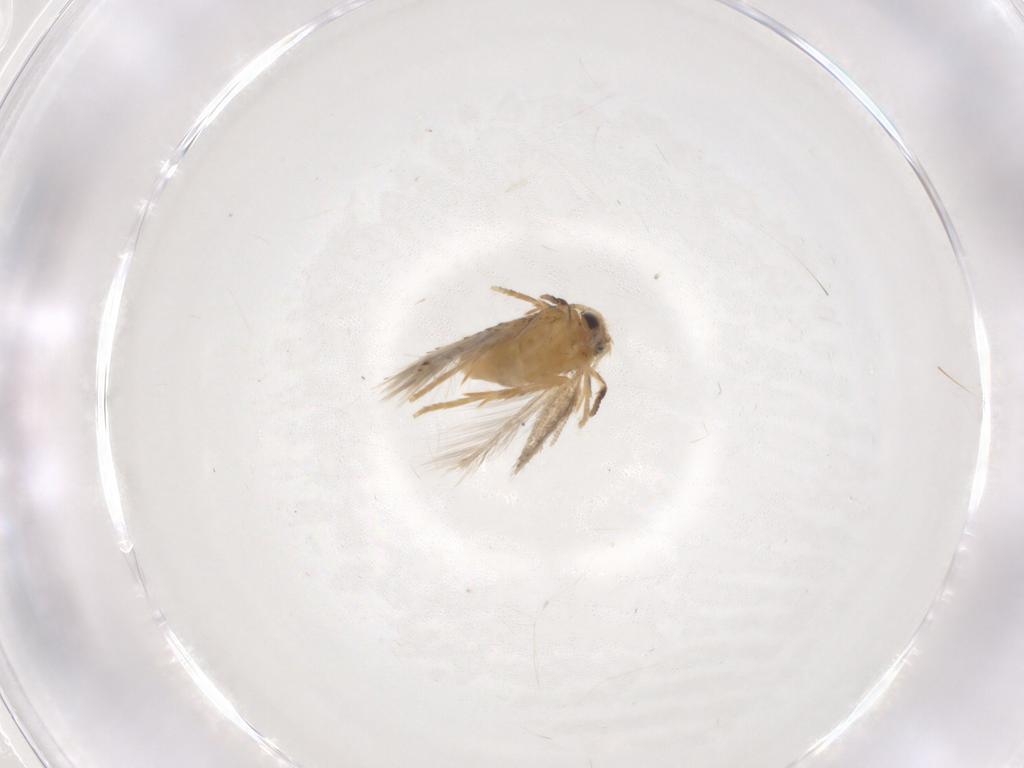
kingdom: Animalia
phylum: Arthropoda
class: Insecta
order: Lepidoptera
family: Nepticulidae
